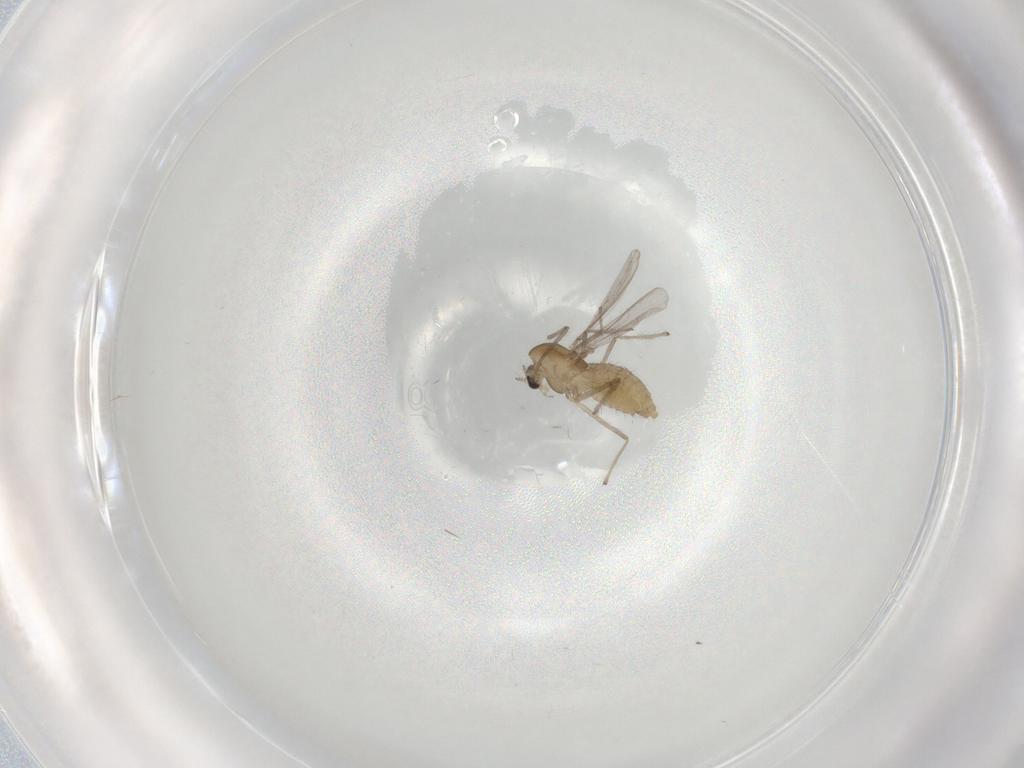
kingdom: Animalia
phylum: Arthropoda
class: Insecta
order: Diptera
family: Chironomidae
